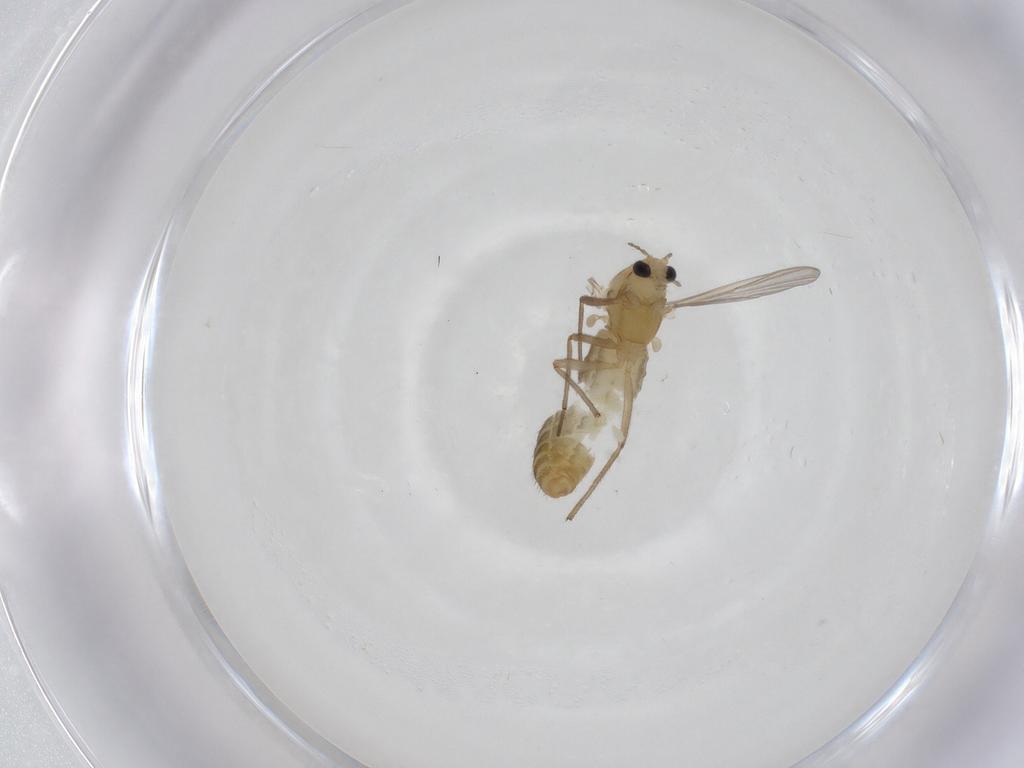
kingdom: Animalia
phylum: Arthropoda
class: Insecta
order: Diptera
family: Chironomidae
